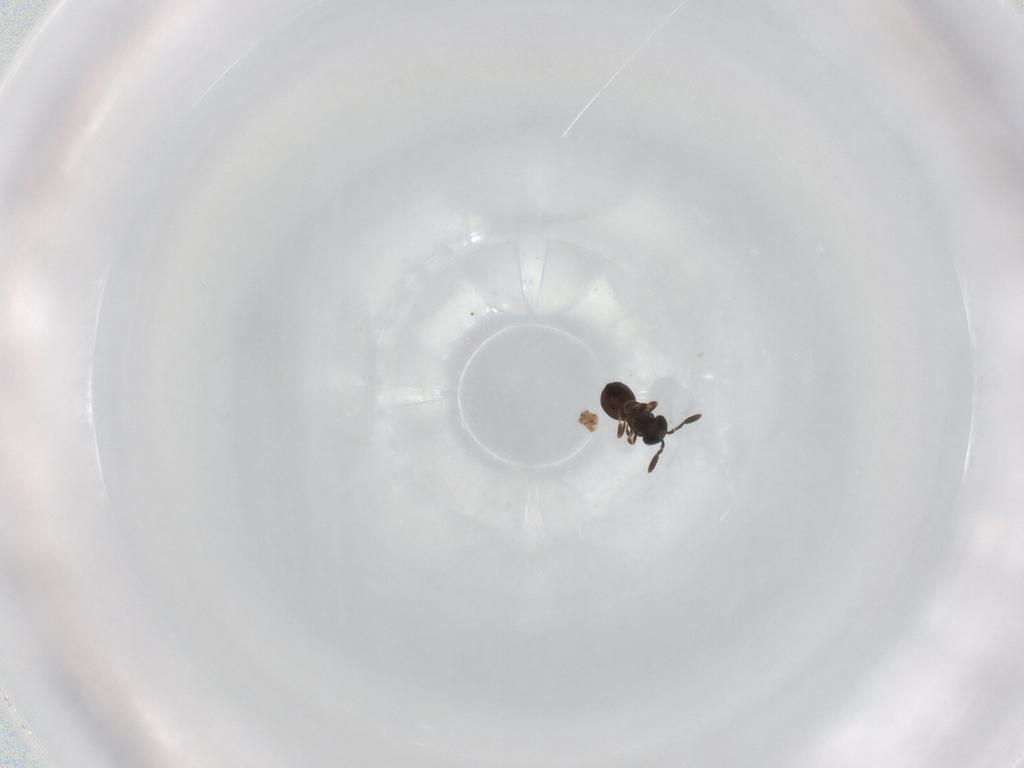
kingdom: Animalia
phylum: Arthropoda
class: Insecta
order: Hymenoptera
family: Scelionidae
